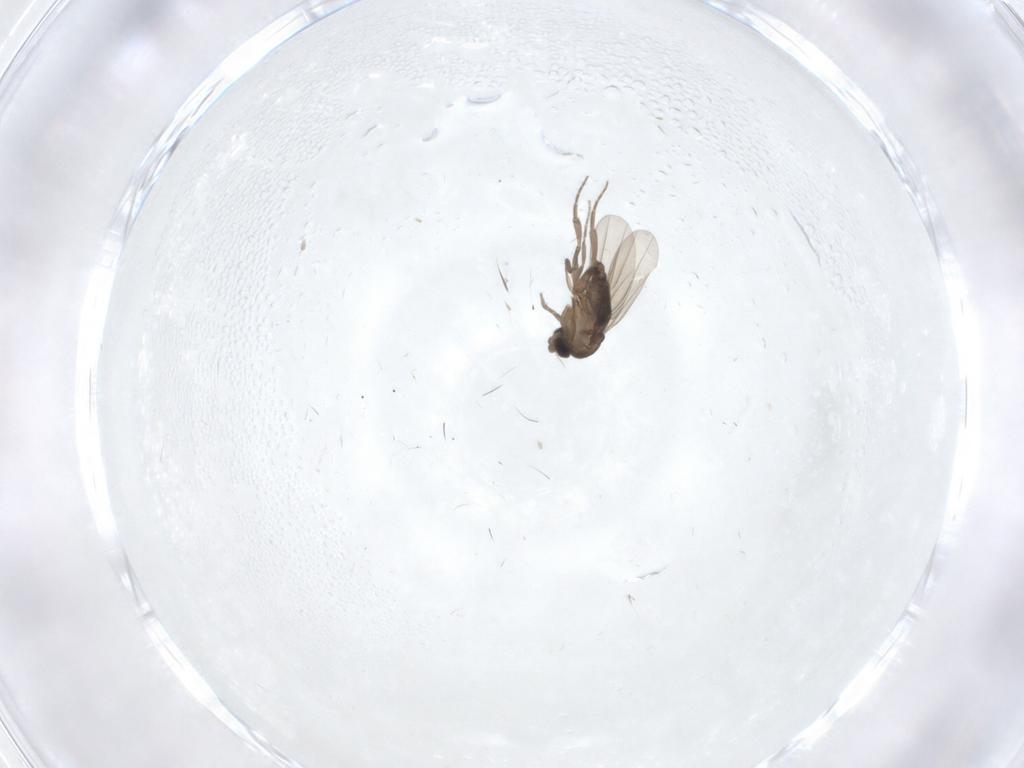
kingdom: Animalia
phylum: Arthropoda
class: Insecta
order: Diptera
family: Phoridae
